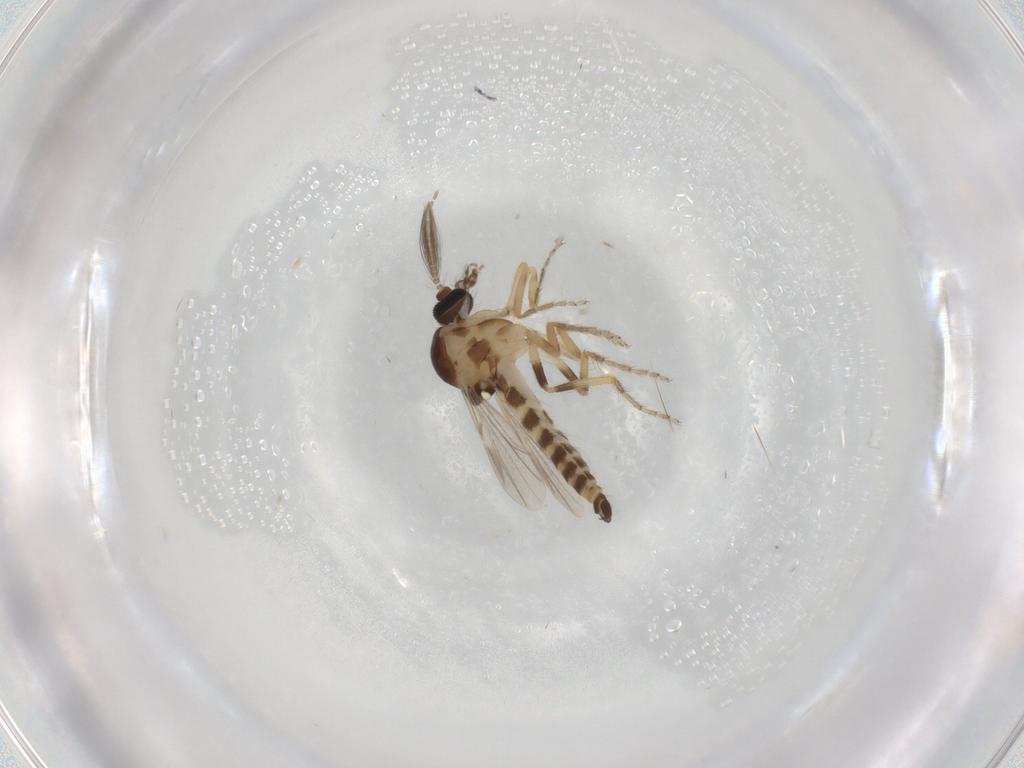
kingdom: Animalia
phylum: Arthropoda
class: Insecta
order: Diptera
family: Ceratopogonidae
